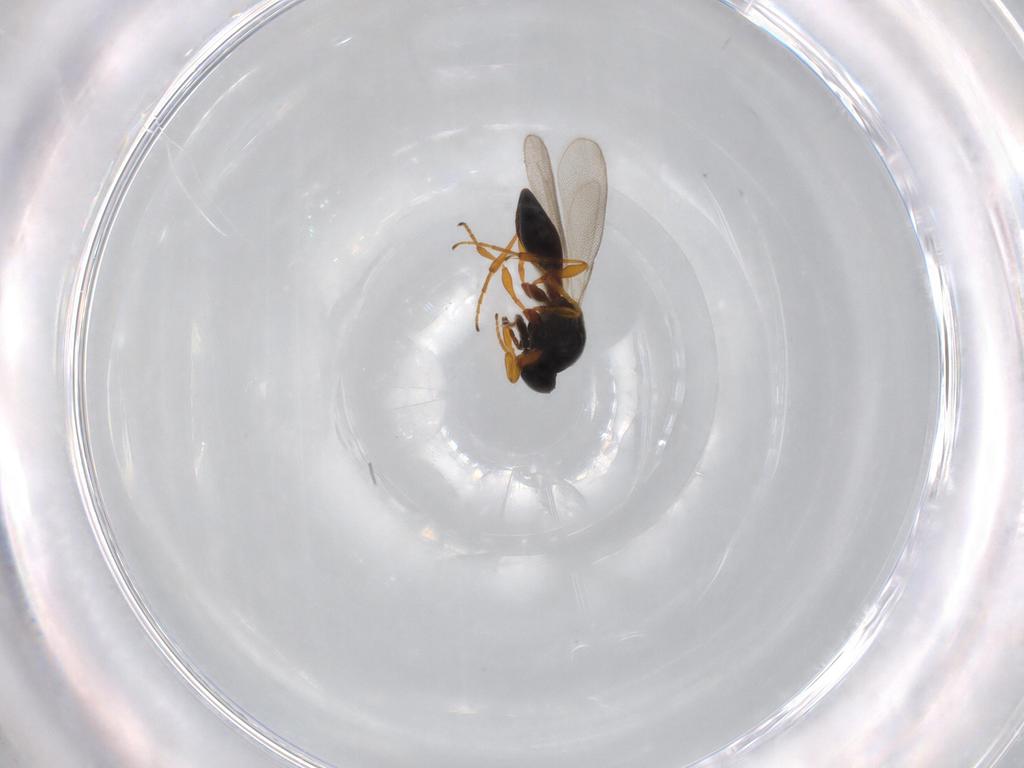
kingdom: Animalia
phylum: Arthropoda
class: Insecta
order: Hymenoptera
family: Platygastridae
